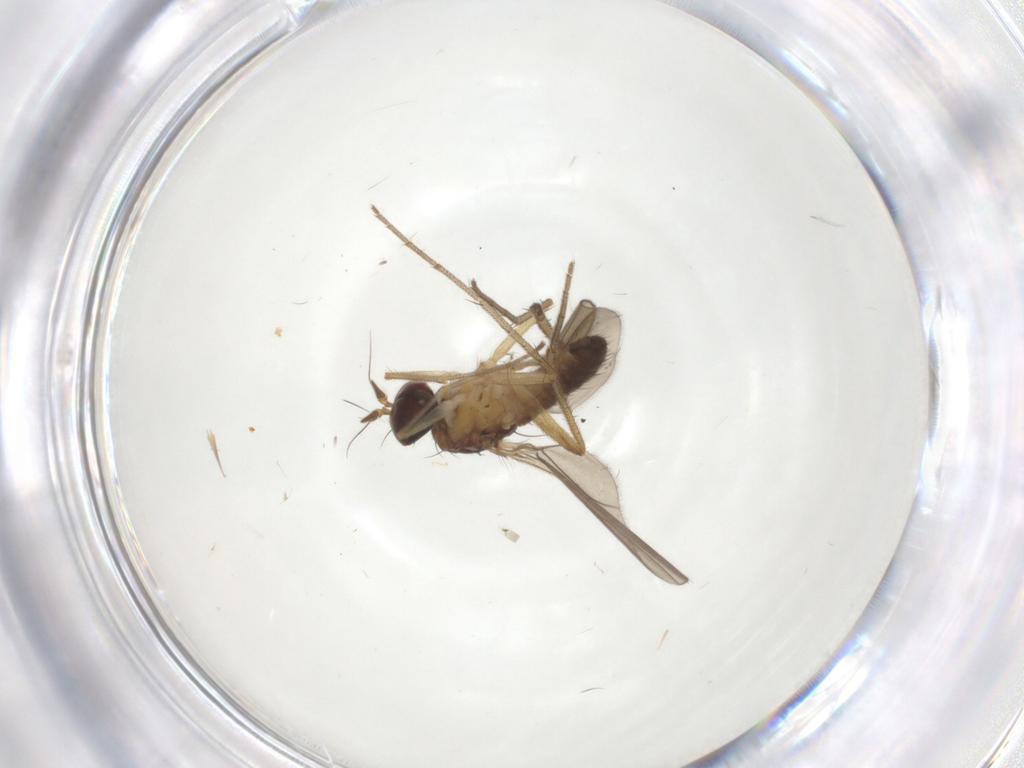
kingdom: Animalia
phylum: Arthropoda
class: Insecta
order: Diptera
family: Dolichopodidae
